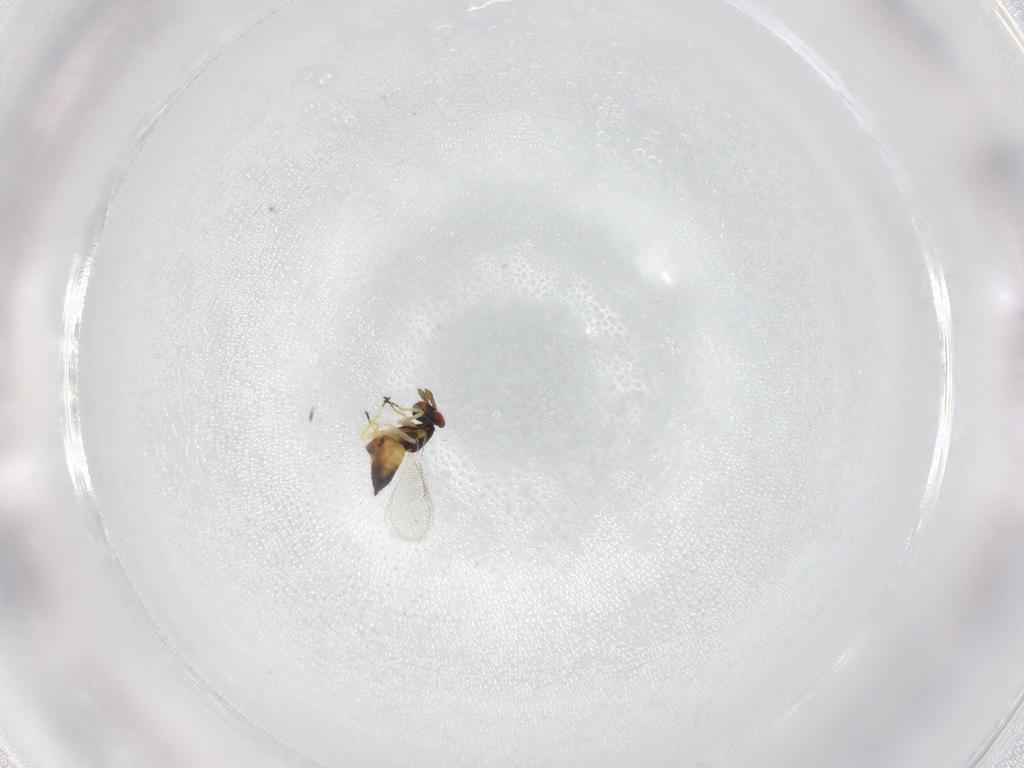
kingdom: Animalia
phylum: Arthropoda
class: Insecta
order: Hymenoptera
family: Eulophidae
